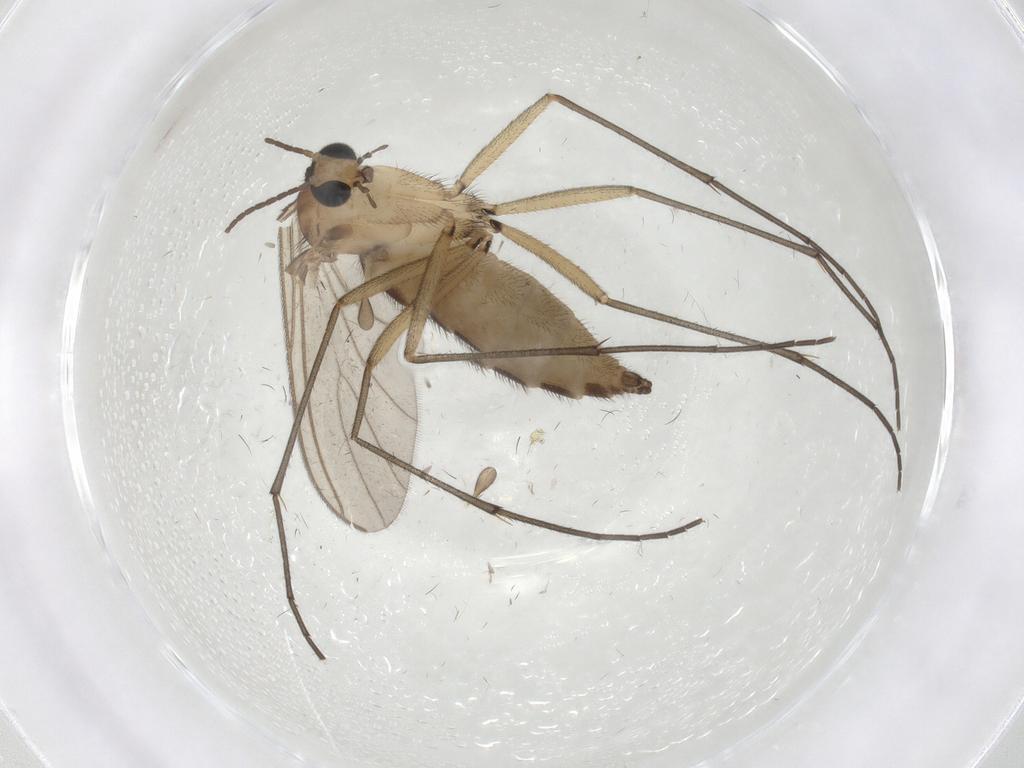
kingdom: Animalia
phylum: Arthropoda
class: Insecta
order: Diptera
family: Sciaridae
